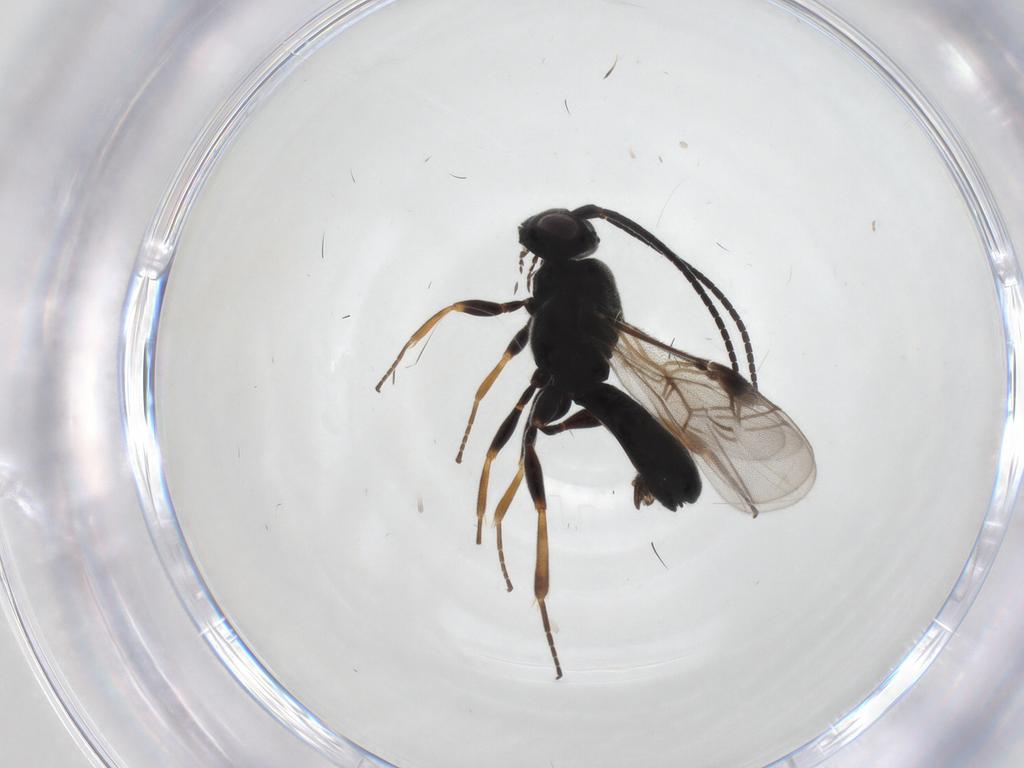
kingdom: Animalia
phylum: Arthropoda
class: Insecta
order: Hymenoptera
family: Braconidae
